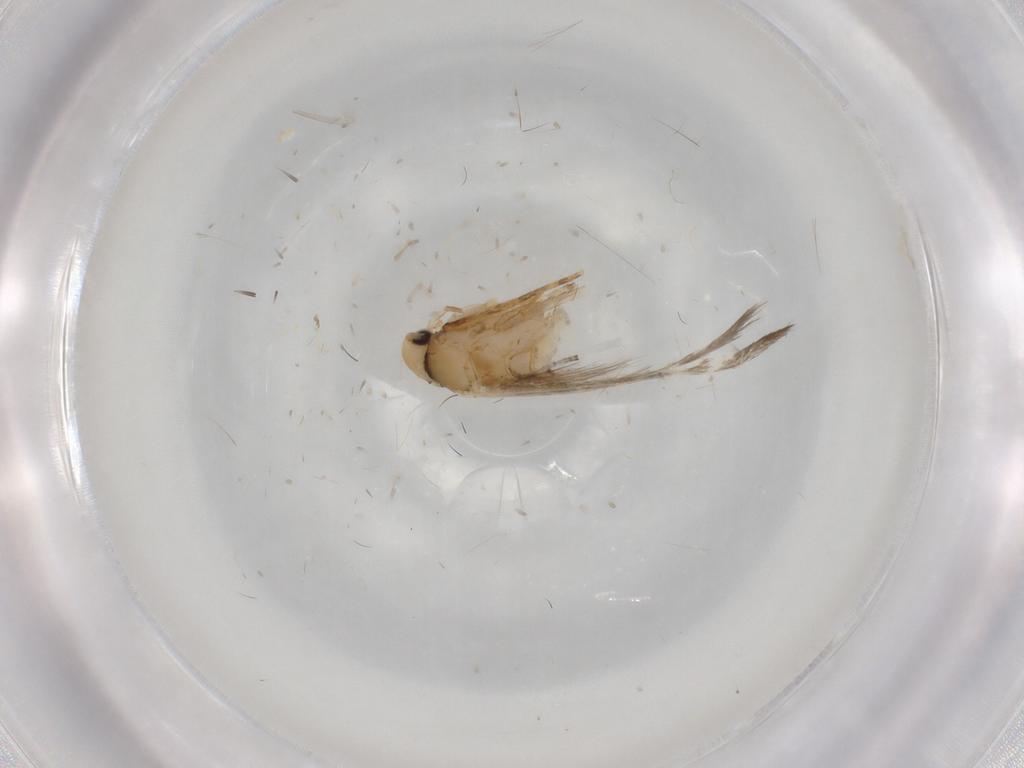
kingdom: Animalia
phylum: Arthropoda
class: Insecta
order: Lepidoptera
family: Tineidae
